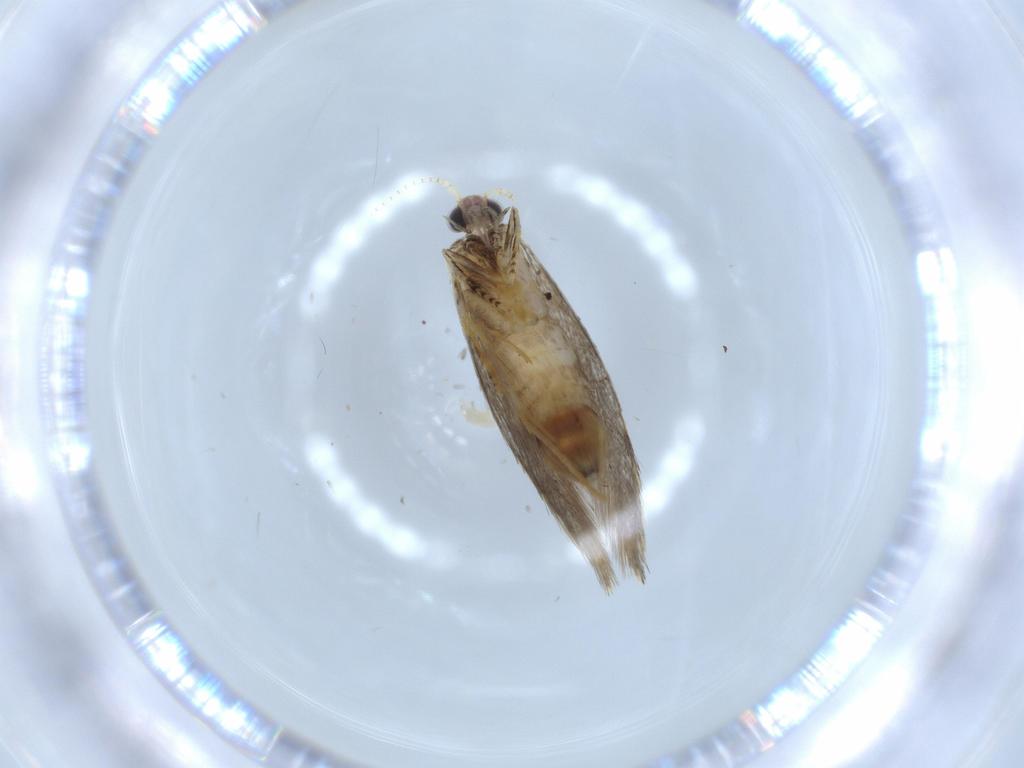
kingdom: Animalia
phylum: Arthropoda
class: Insecta
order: Lepidoptera
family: Tineidae
